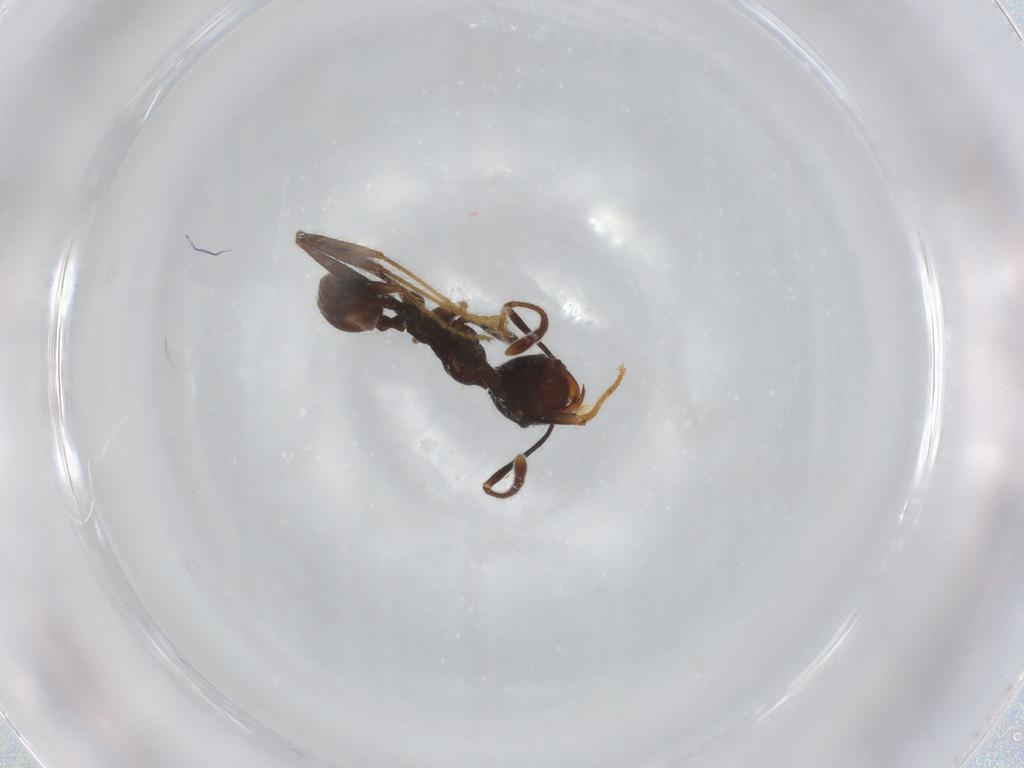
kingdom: Animalia
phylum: Arthropoda
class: Insecta
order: Hymenoptera
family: Formicidae
